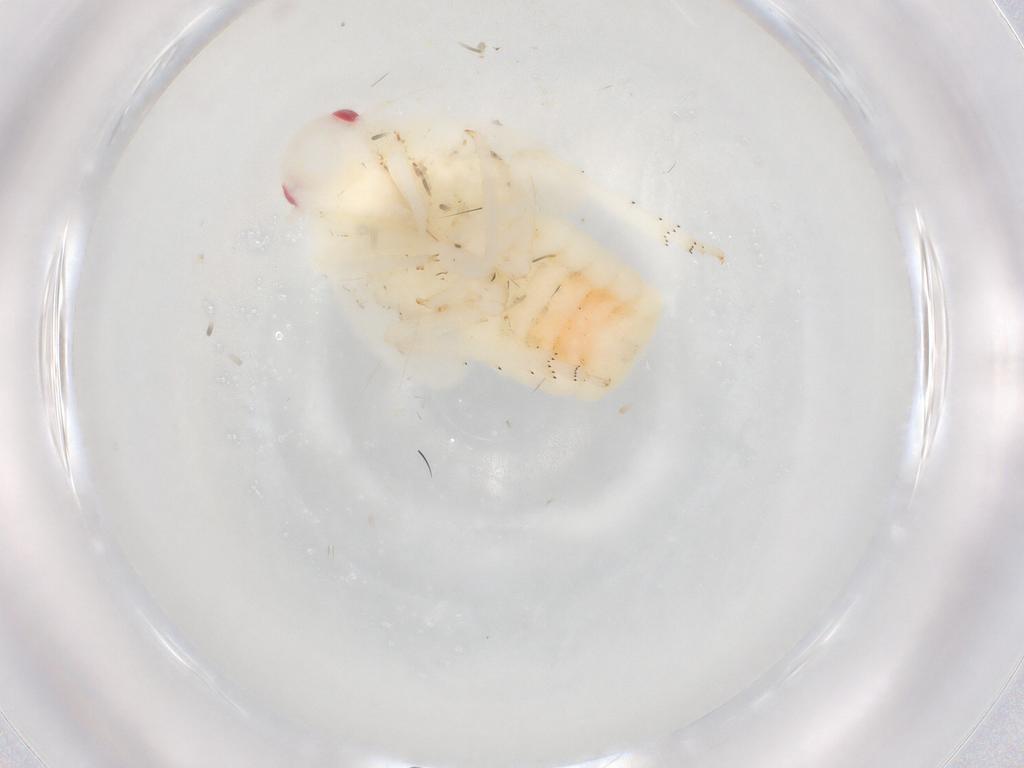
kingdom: Animalia
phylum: Arthropoda
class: Insecta
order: Hemiptera
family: Flatidae
